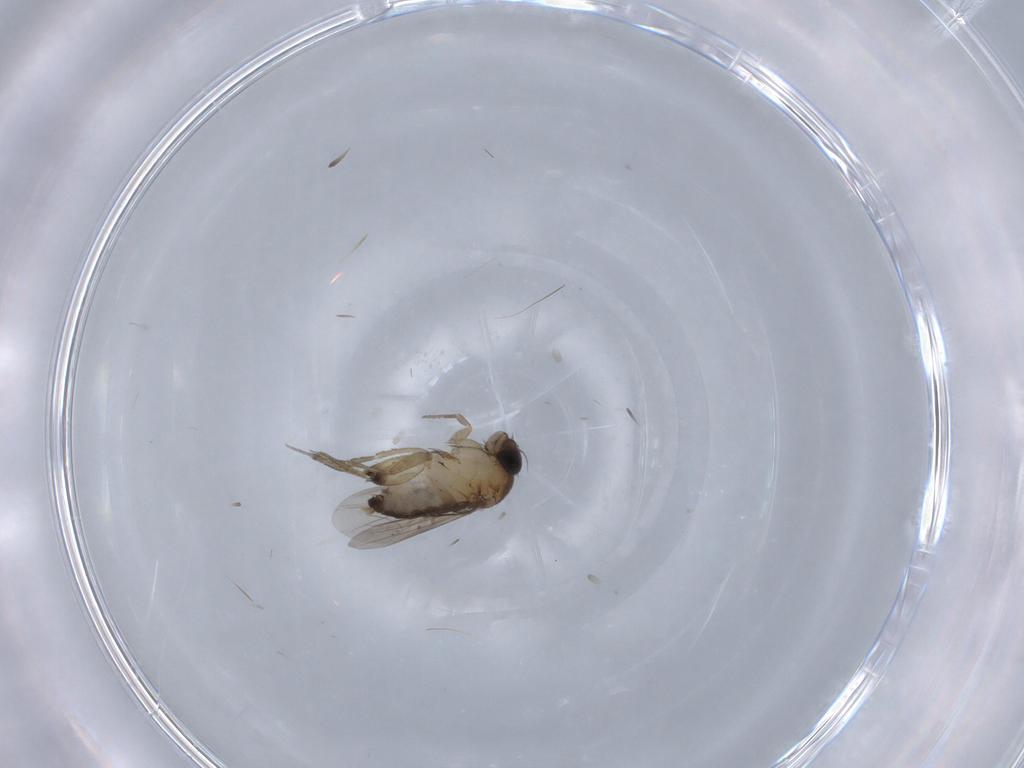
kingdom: Animalia
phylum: Arthropoda
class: Insecta
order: Diptera
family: Phoridae
